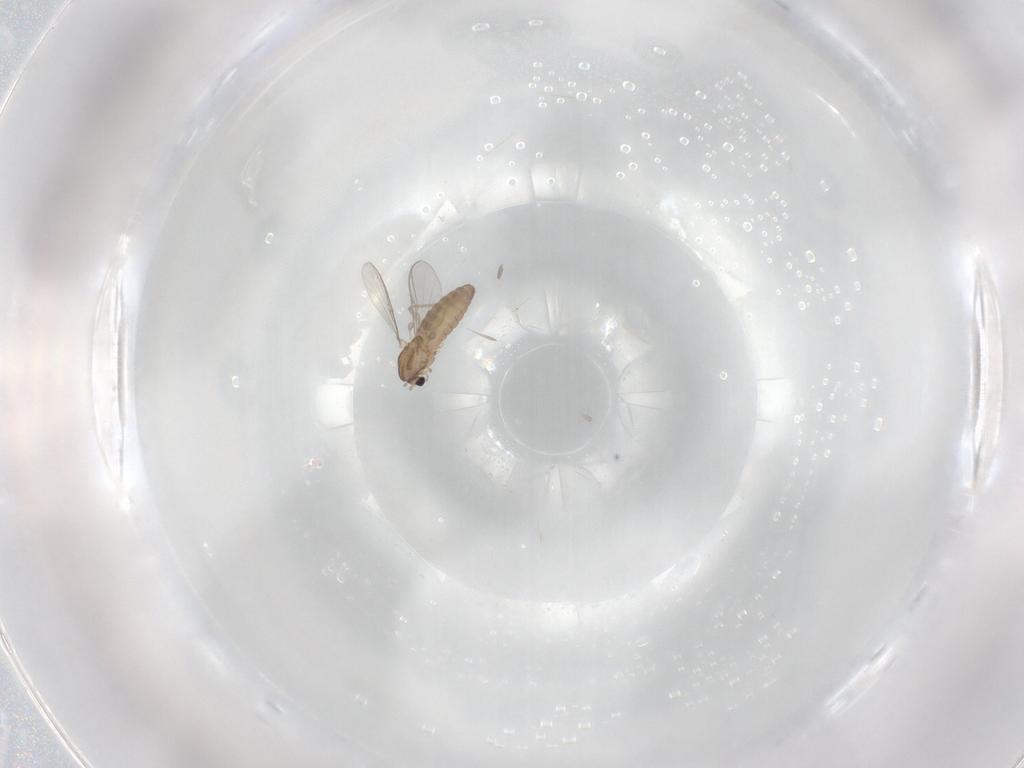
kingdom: Animalia
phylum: Arthropoda
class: Insecta
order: Diptera
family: Chironomidae
